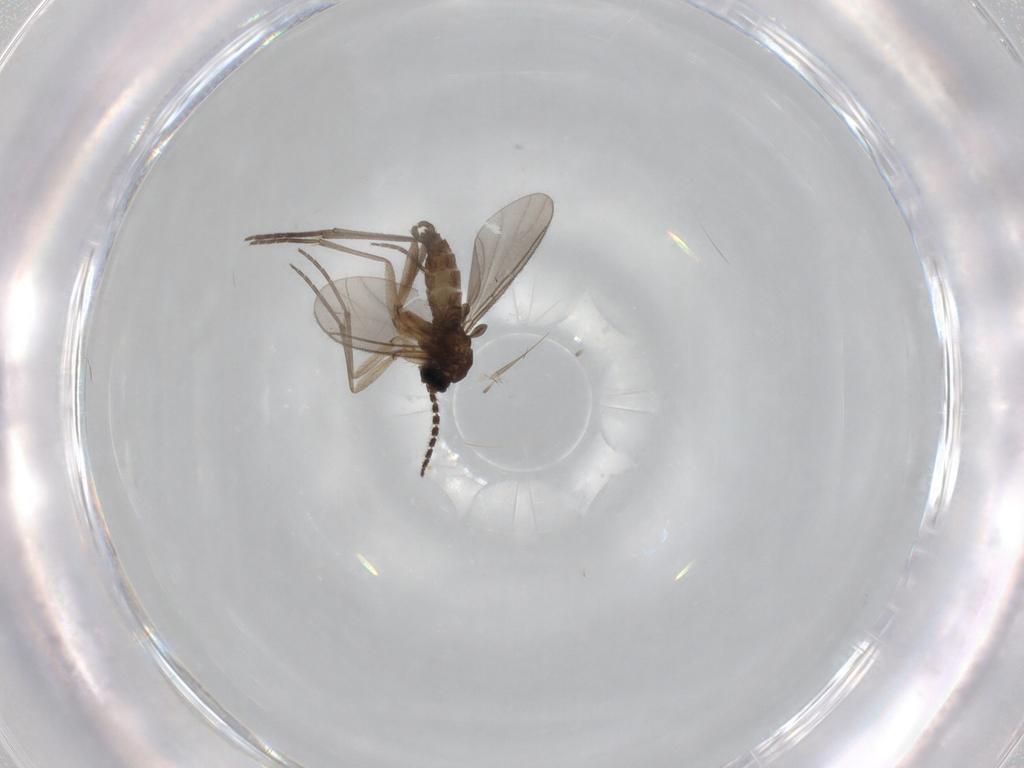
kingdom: Animalia
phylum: Arthropoda
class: Insecta
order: Diptera
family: Sciaridae
